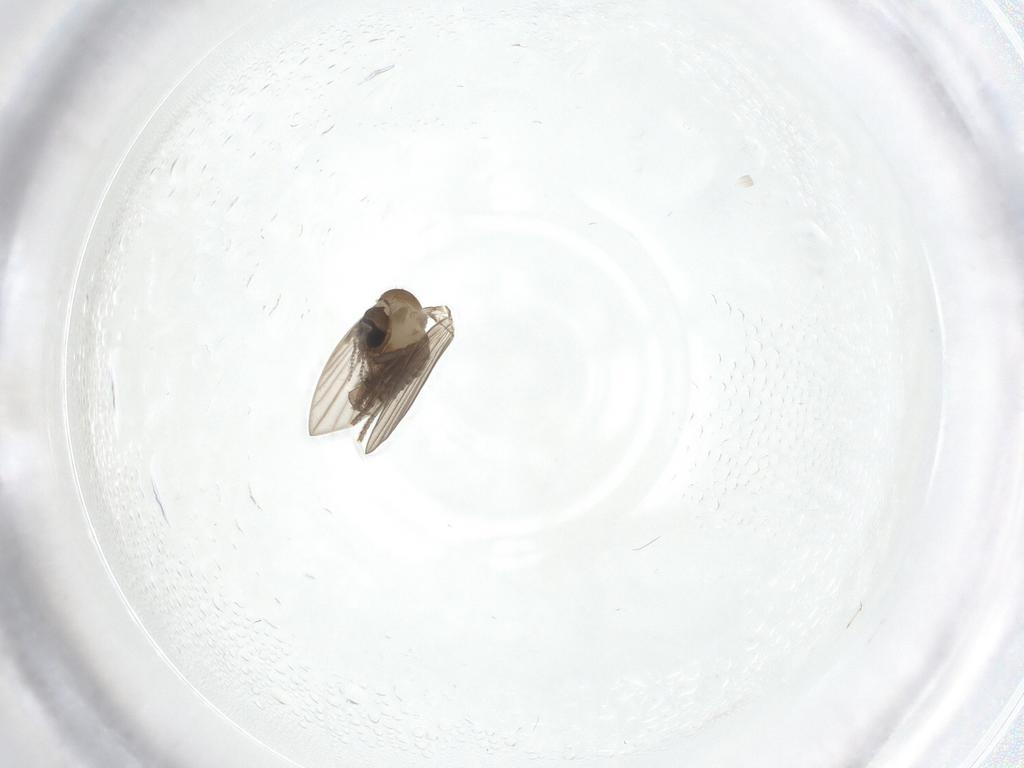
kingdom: Animalia
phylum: Arthropoda
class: Insecta
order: Diptera
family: Psychodidae
